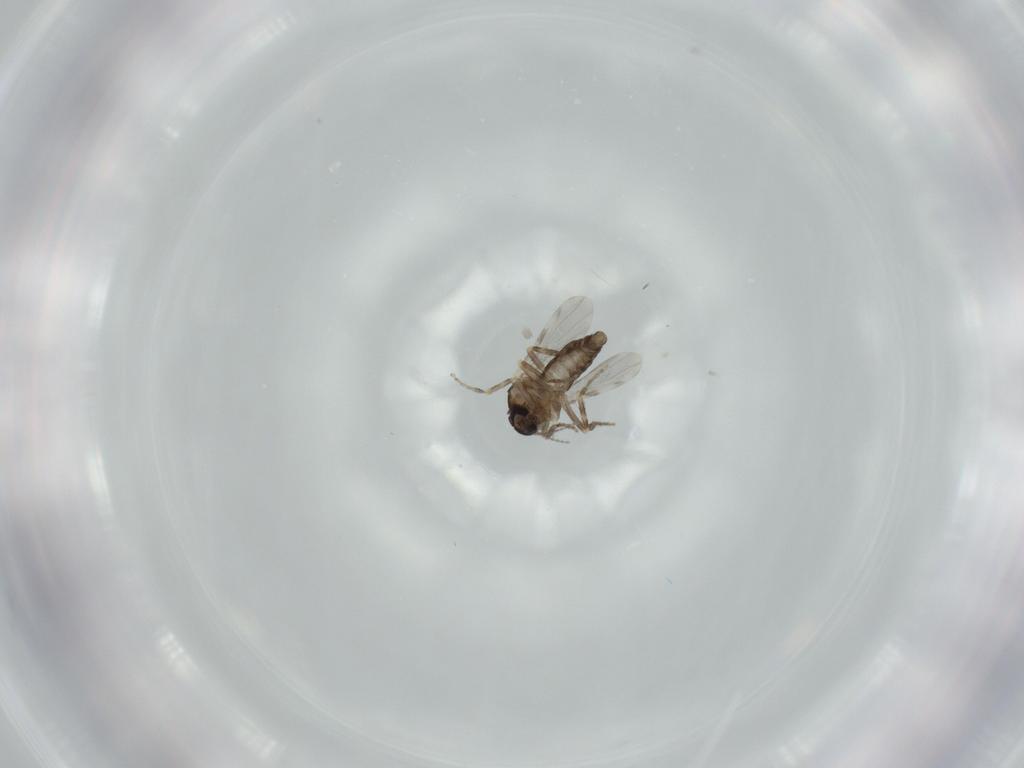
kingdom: Animalia
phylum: Arthropoda
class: Insecta
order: Diptera
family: Ceratopogonidae
